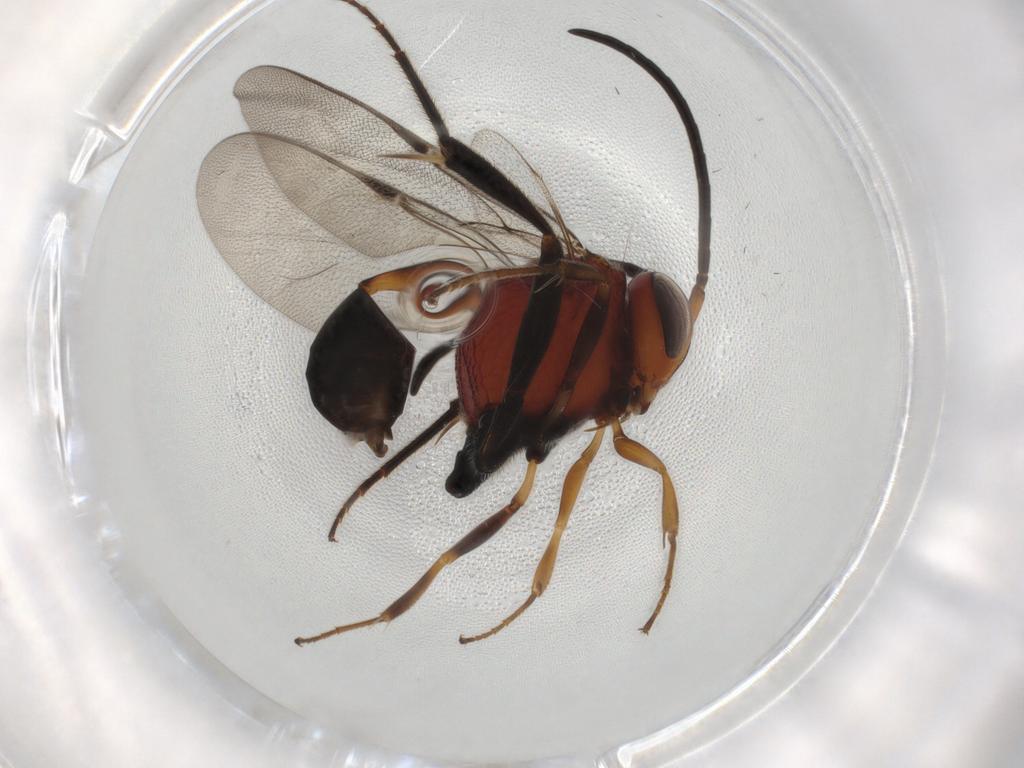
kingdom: Animalia
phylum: Arthropoda
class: Insecta
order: Hymenoptera
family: Evaniidae
